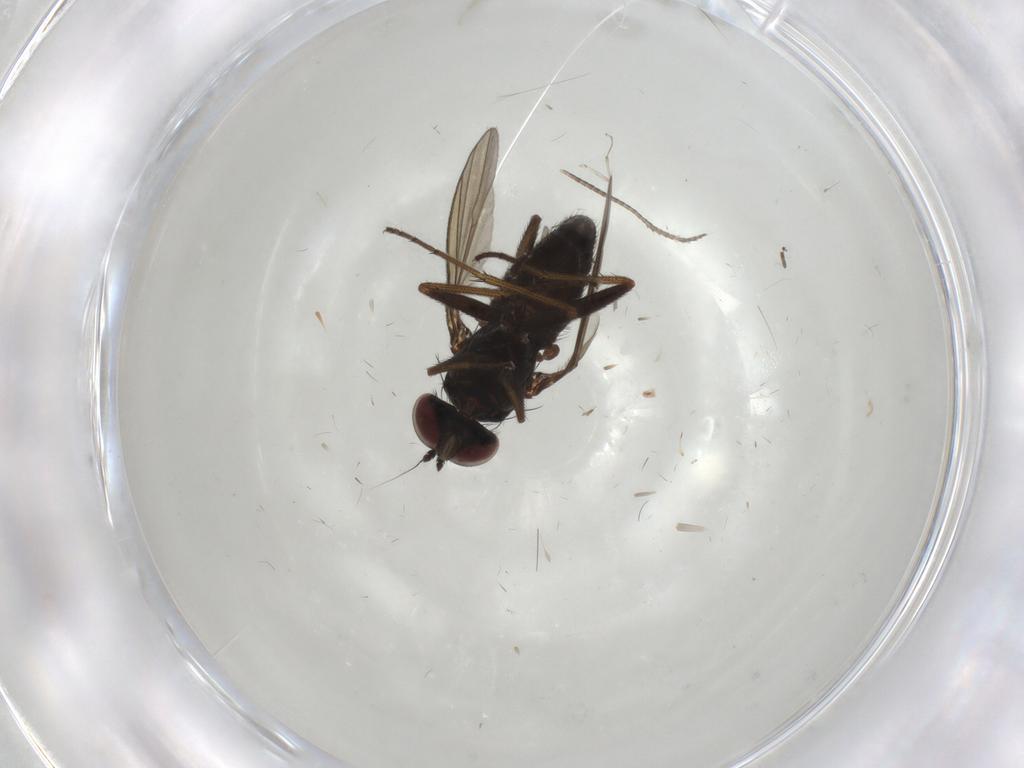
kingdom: Animalia
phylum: Arthropoda
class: Insecta
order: Diptera
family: Dolichopodidae
